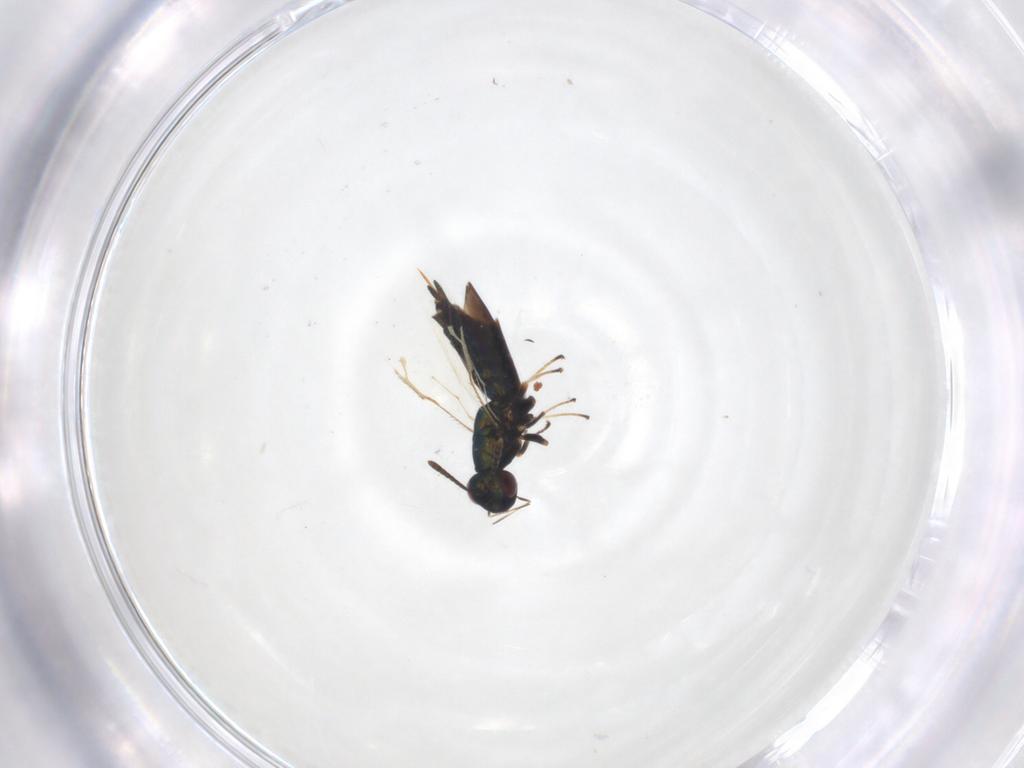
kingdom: Animalia
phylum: Arthropoda
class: Insecta
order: Hymenoptera
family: Pteromalidae
